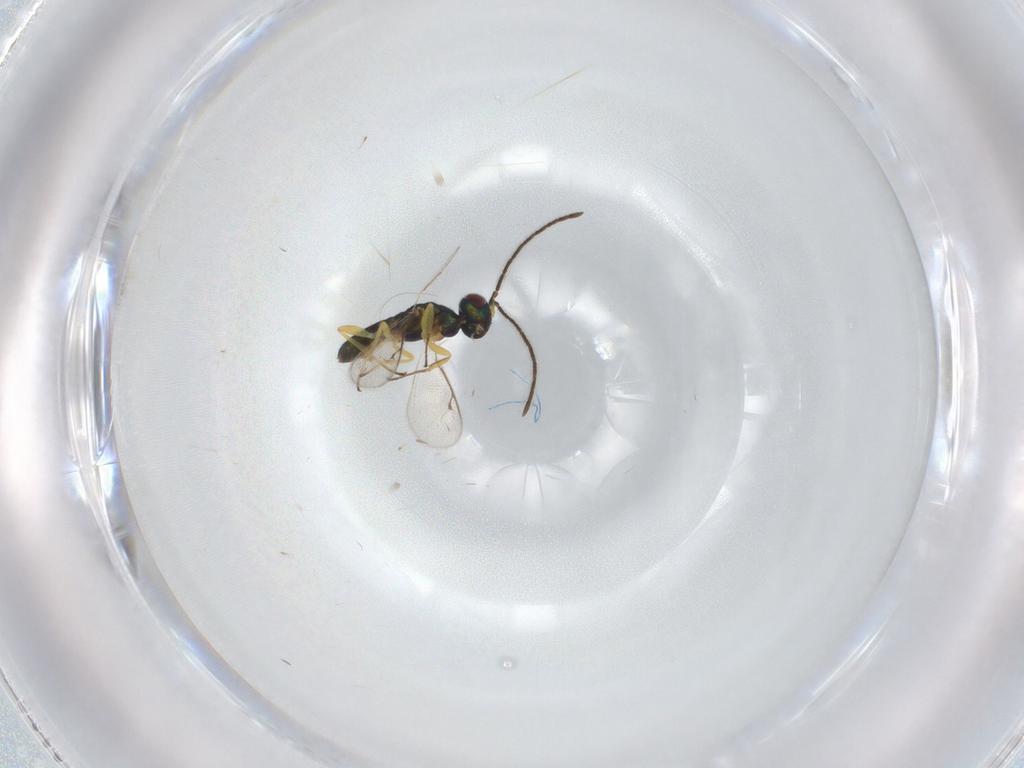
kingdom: Animalia
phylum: Arthropoda
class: Insecta
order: Hymenoptera
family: Eupelmidae
